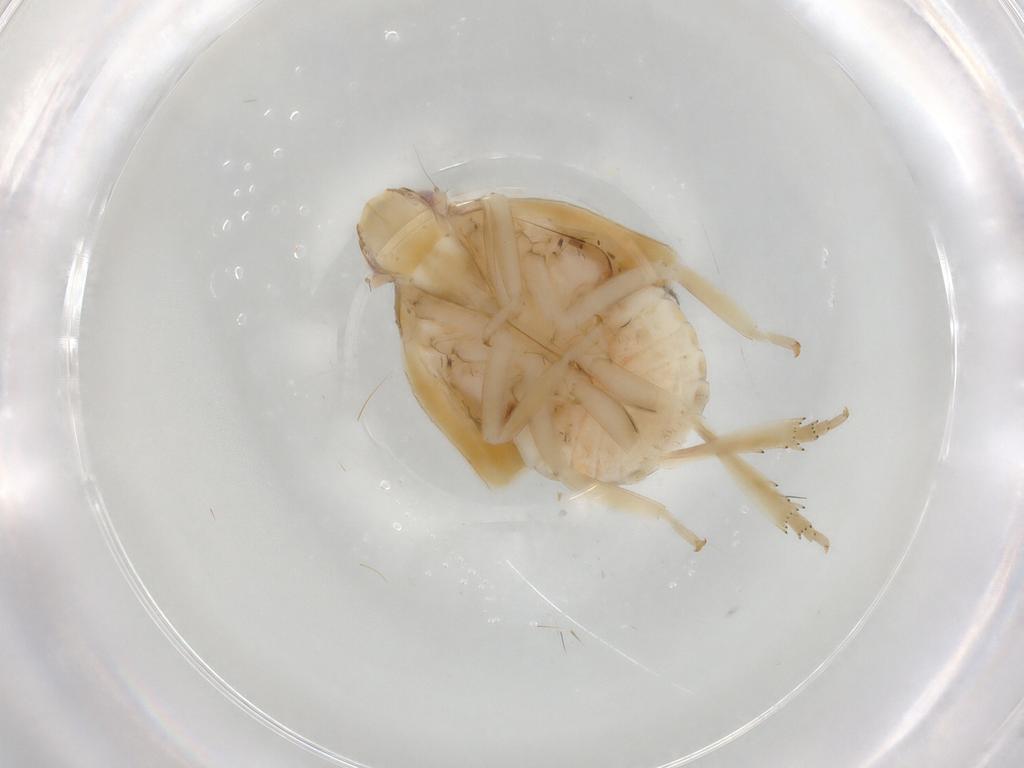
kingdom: Animalia
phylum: Arthropoda
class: Insecta
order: Hemiptera
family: Flatidae
